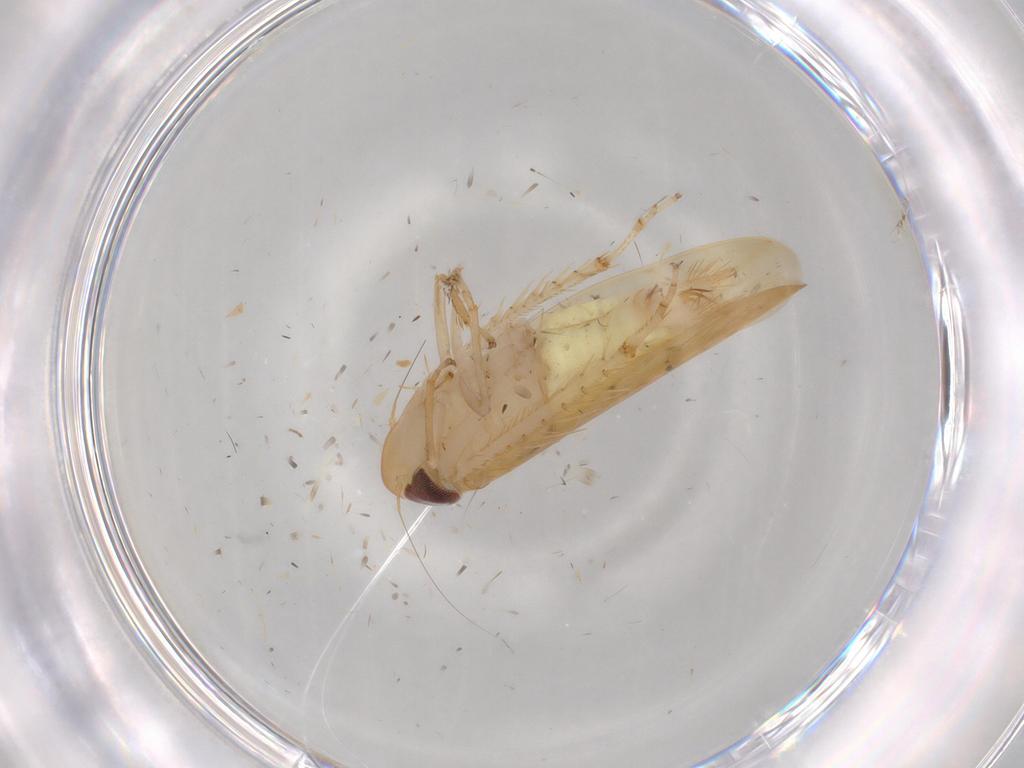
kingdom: Animalia
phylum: Arthropoda
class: Insecta
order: Hemiptera
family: Cicadellidae
